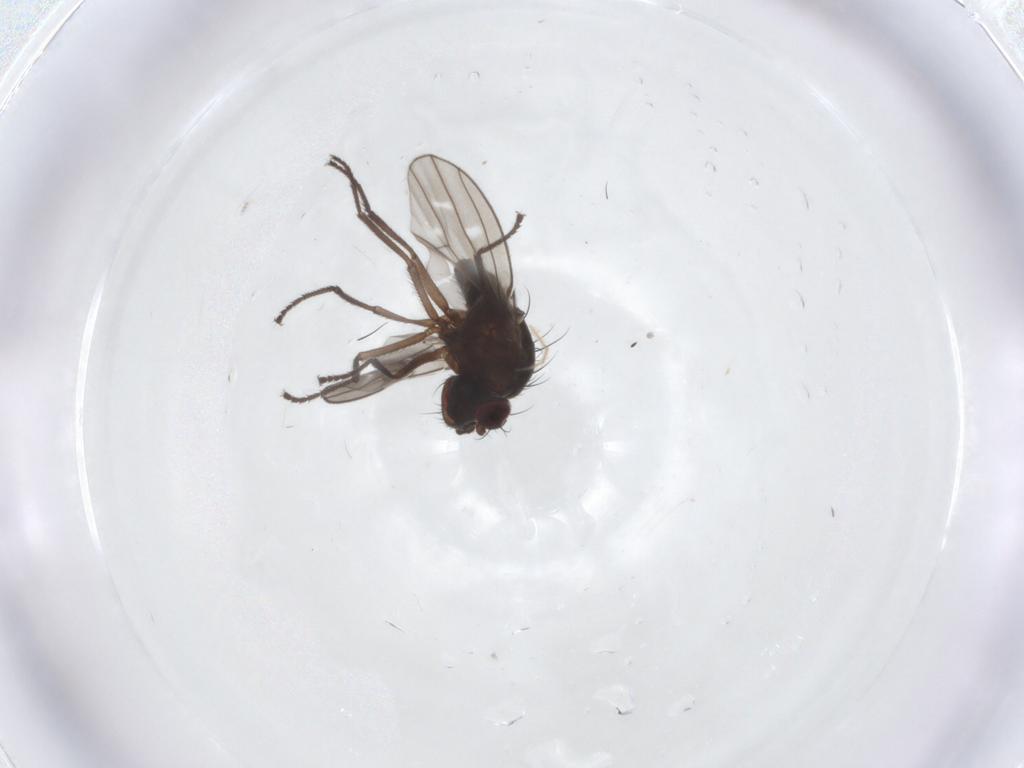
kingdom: Animalia
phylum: Arthropoda
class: Insecta
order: Diptera
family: Ephydridae
